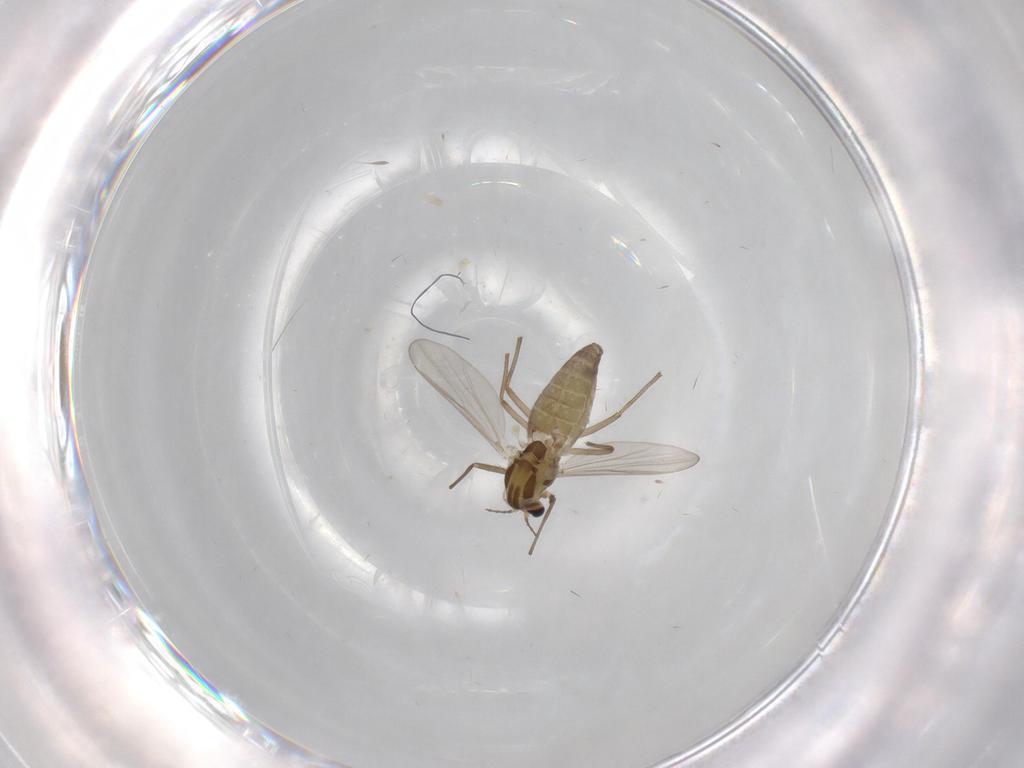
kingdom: Animalia
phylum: Arthropoda
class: Insecta
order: Diptera
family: Chironomidae
